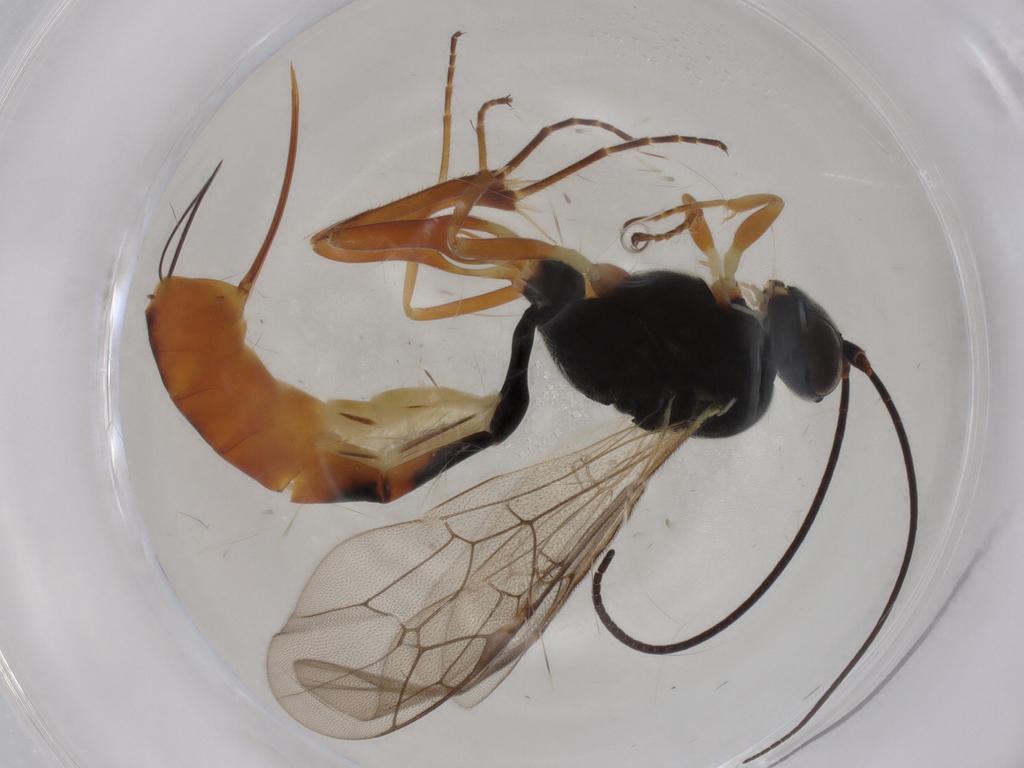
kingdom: Animalia
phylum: Arthropoda
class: Insecta
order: Hymenoptera
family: Ichneumonidae
